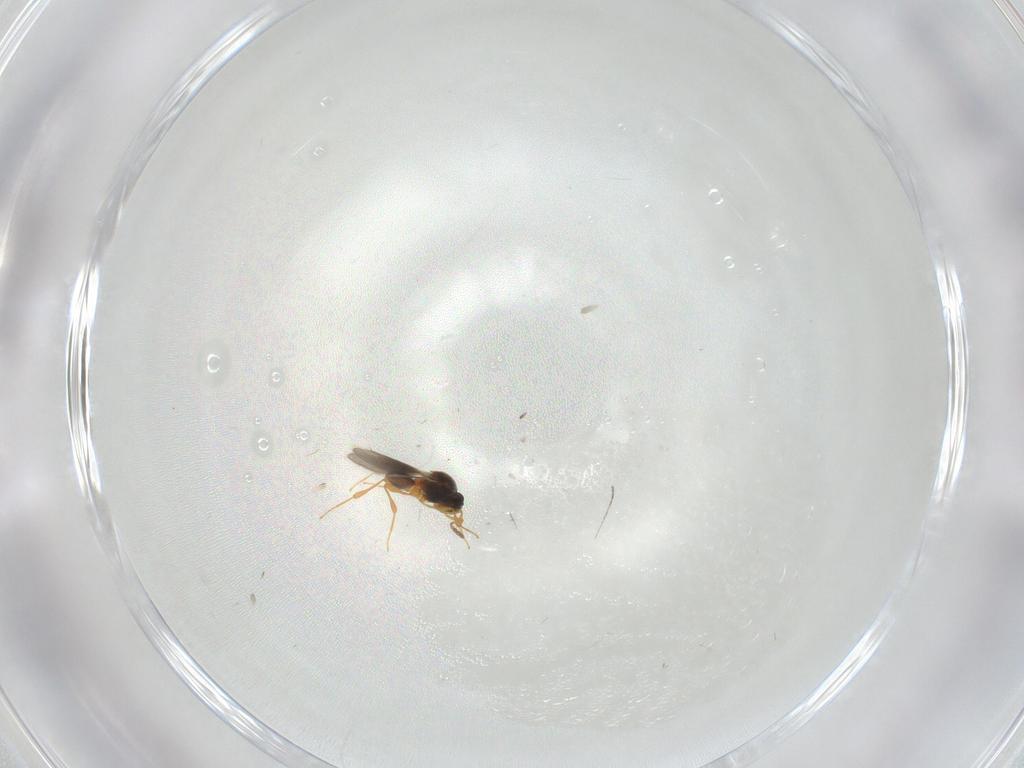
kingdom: Animalia
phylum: Arthropoda
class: Insecta
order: Hymenoptera
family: Platygastridae
